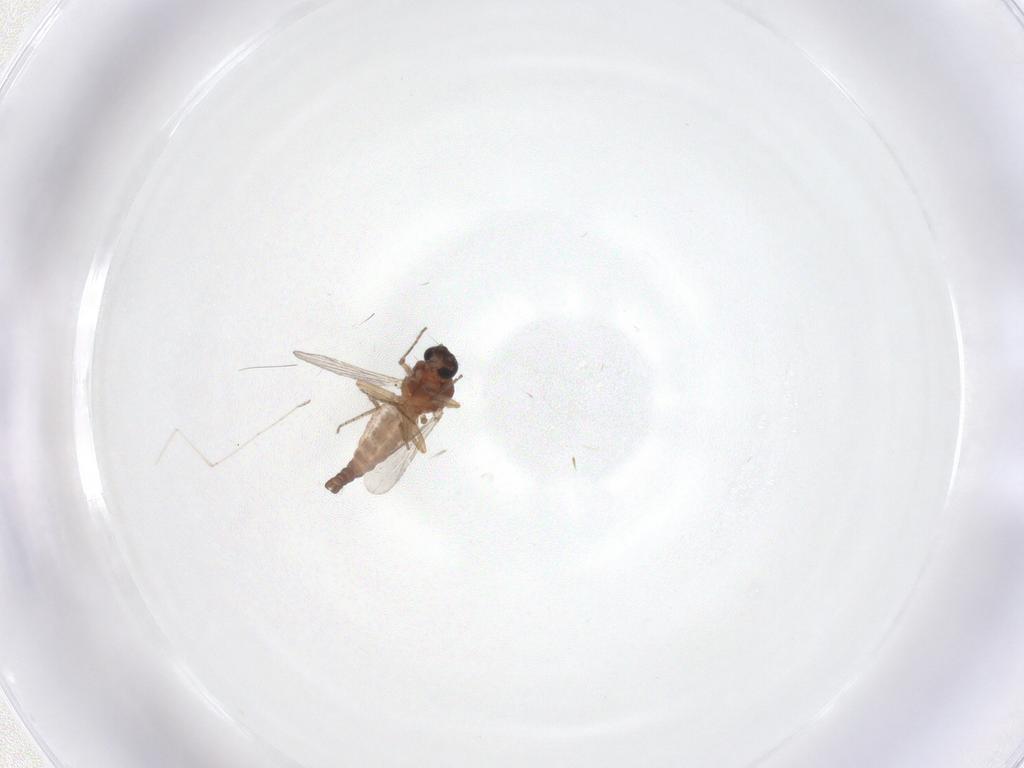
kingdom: Animalia
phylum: Arthropoda
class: Insecta
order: Diptera
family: Ceratopogonidae
